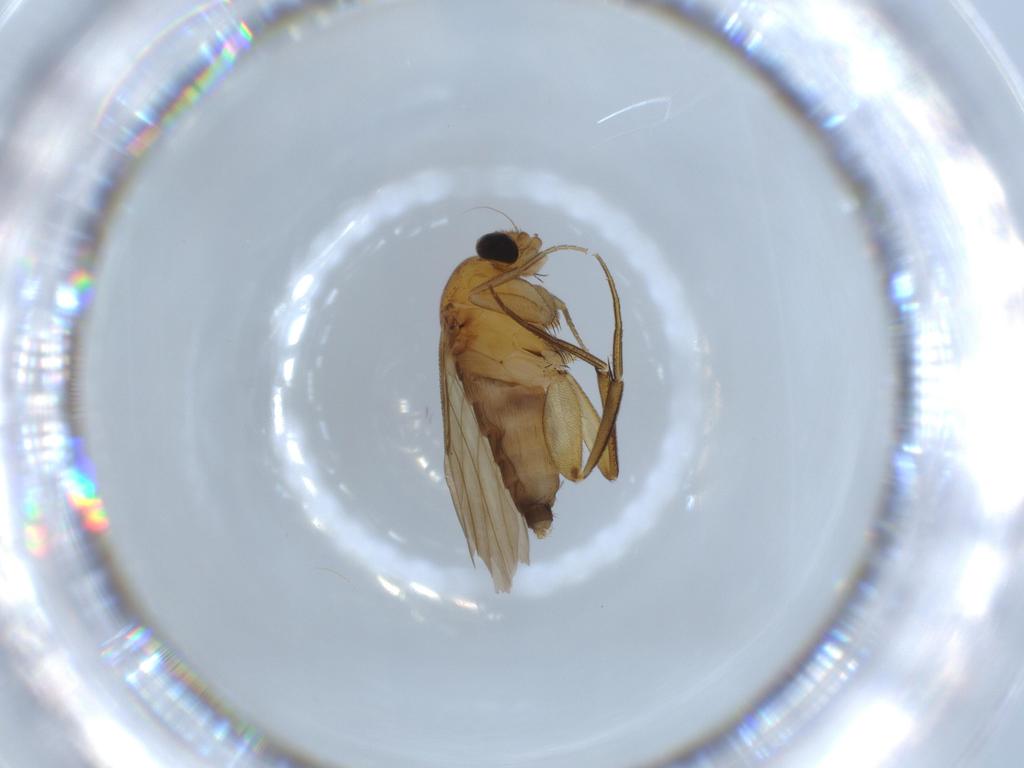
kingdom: Animalia
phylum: Arthropoda
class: Insecta
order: Diptera
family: Phoridae
